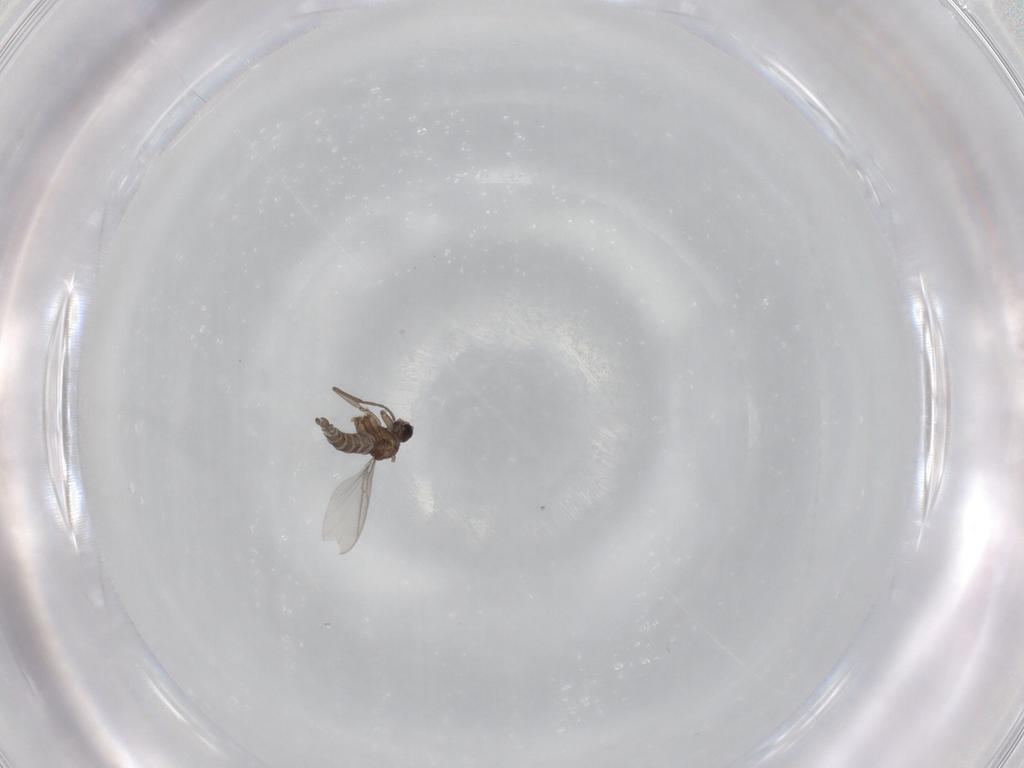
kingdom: Animalia
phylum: Arthropoda
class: Insecta
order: Diptera
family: Sciaridae
